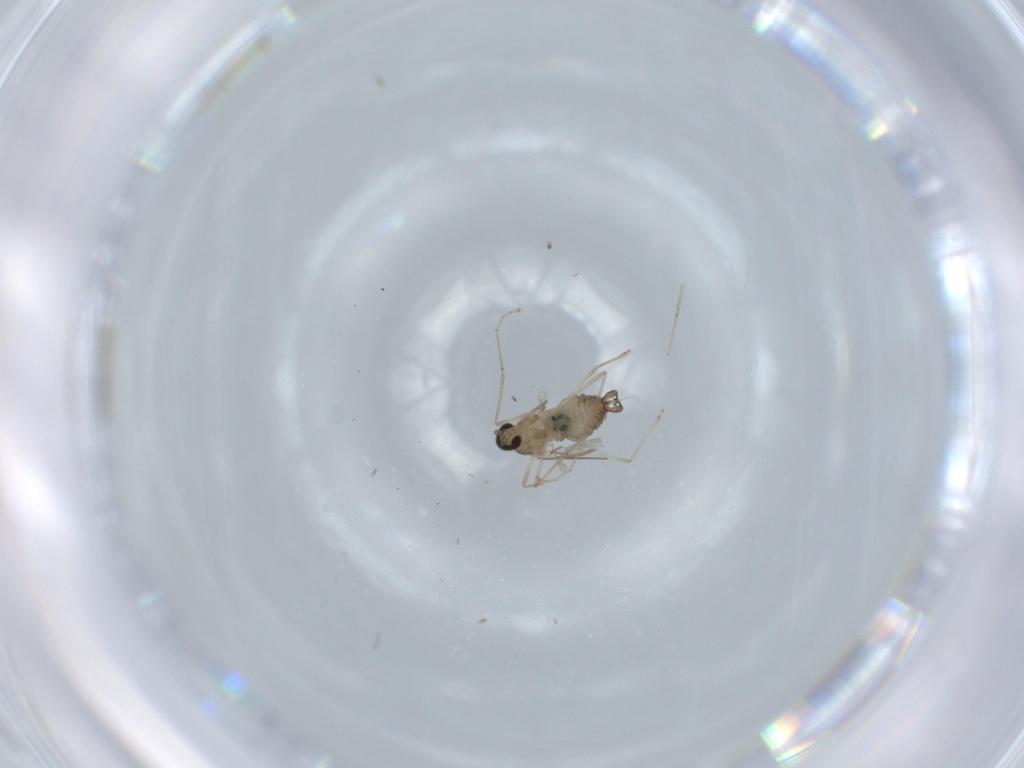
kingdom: Animalia
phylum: Arthropoda
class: Insecta
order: Diptera
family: Cecidomyiidae
